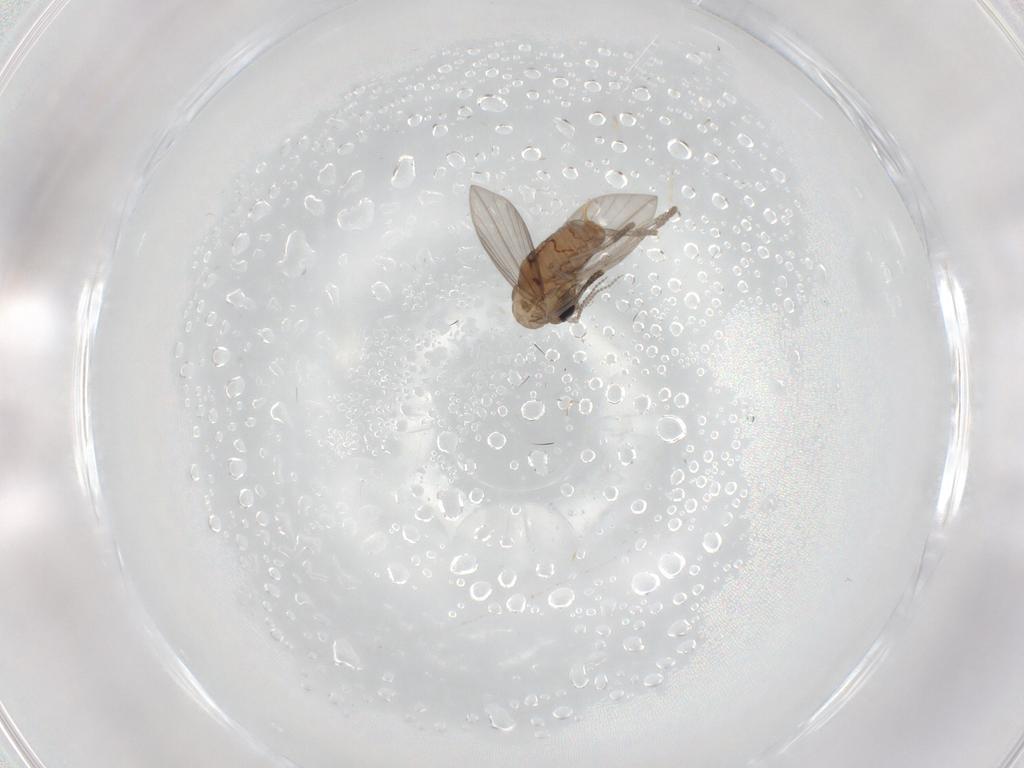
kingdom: Animalia
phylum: Arthropoda
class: Insecta
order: Diptera
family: Psychodidae
